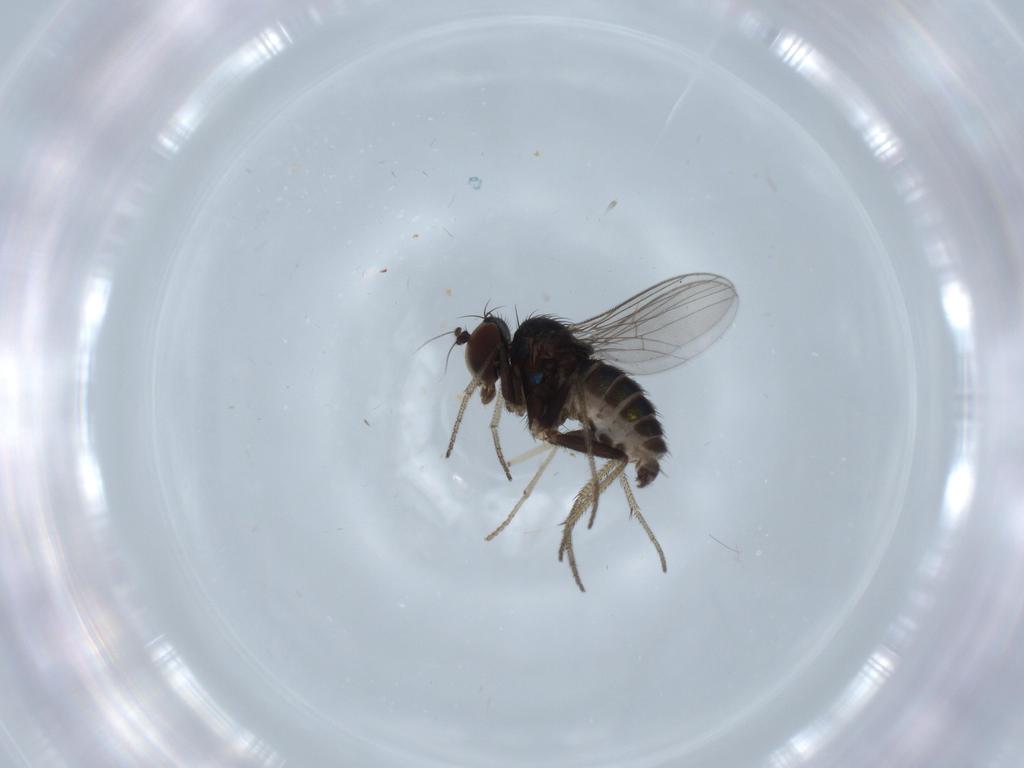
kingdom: Animalia
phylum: Arthropoda
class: Insecta
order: Diptera
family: Dolichopodidae
